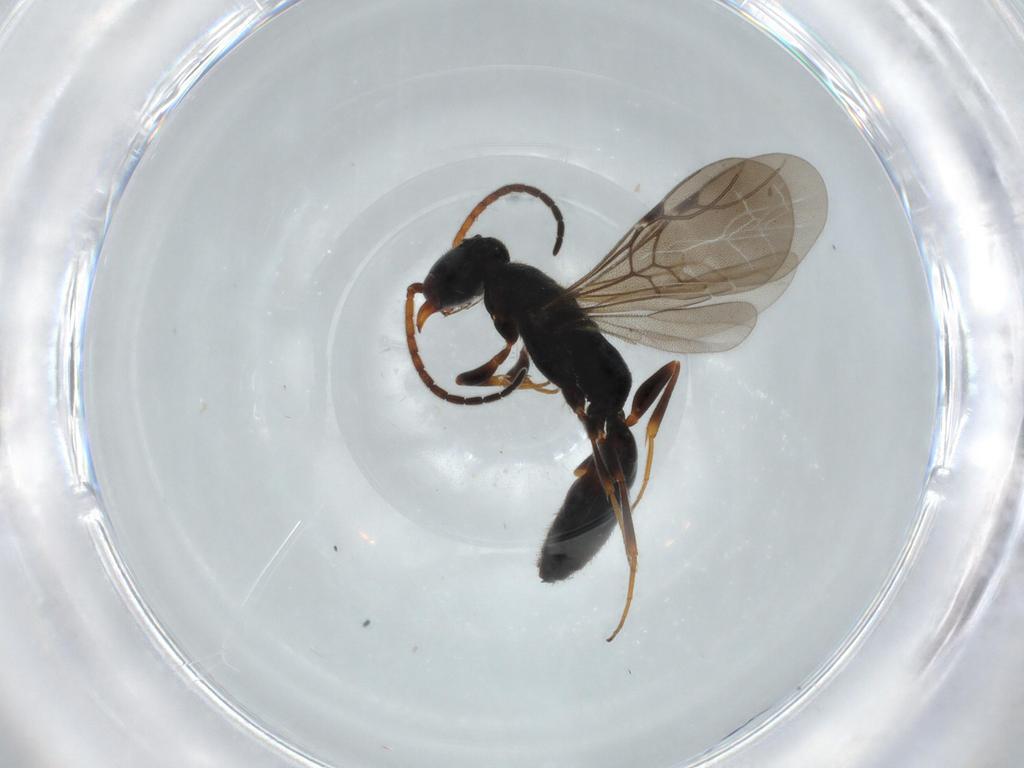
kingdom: Animalia
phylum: Arthropoda
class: Insecta
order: Hymenoptera
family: Bethylidae
